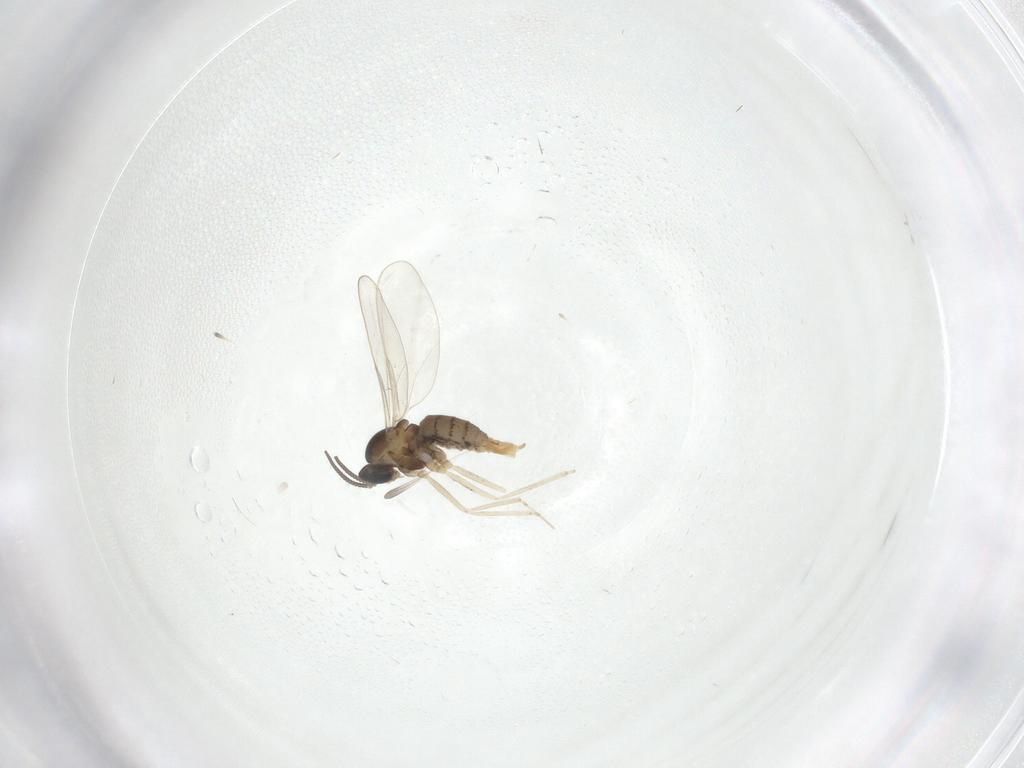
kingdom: Animalia
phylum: Arthropoda
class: Insecta
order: Diptera
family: Cecidomyiidae
